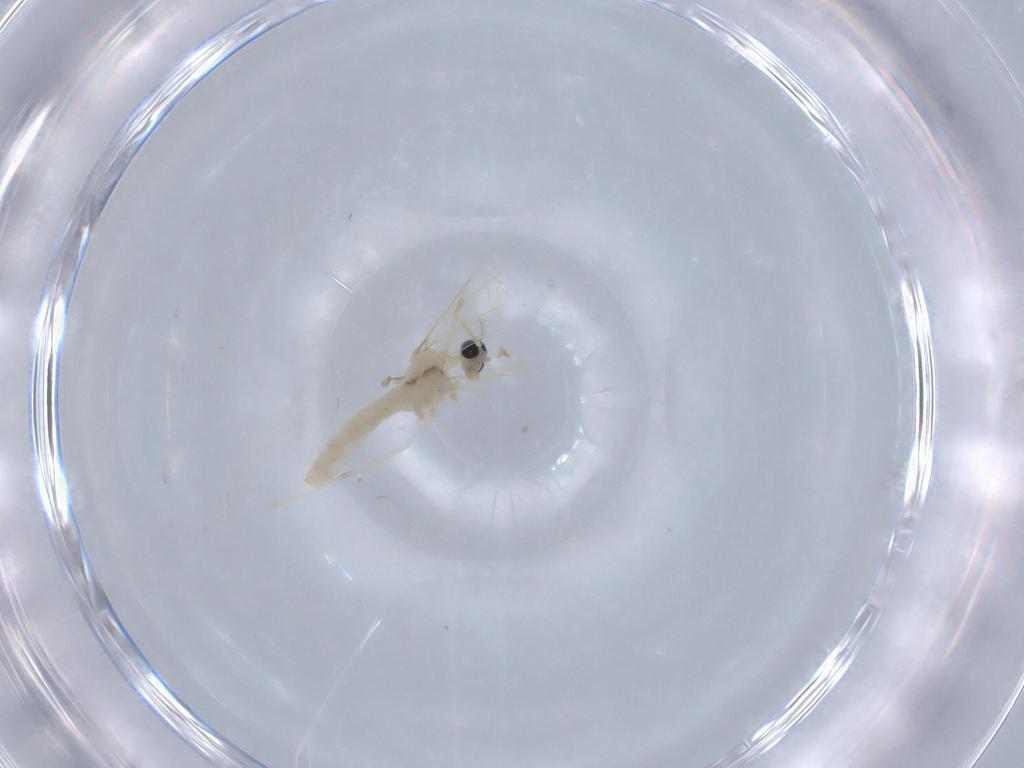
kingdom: Animalia
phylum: Arthropoda
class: Insecta
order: Diptera
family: Cecidomyiidae
